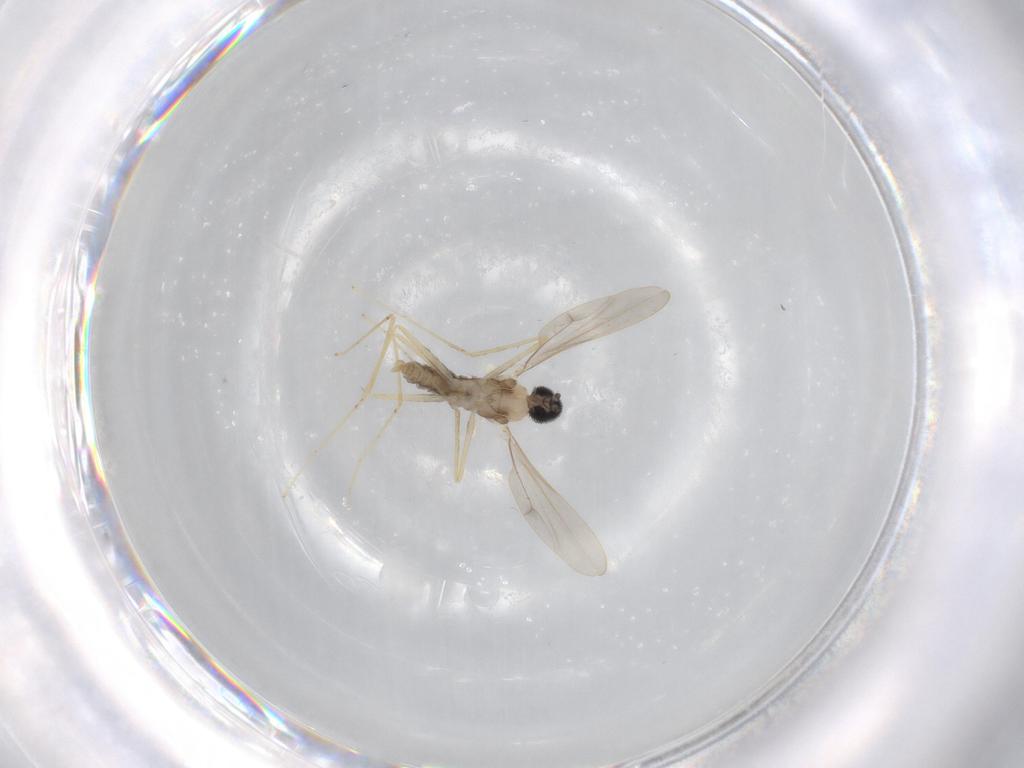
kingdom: Animalia
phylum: Arthropoda
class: Insecta
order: Diptera
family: Cecidomyiidae
